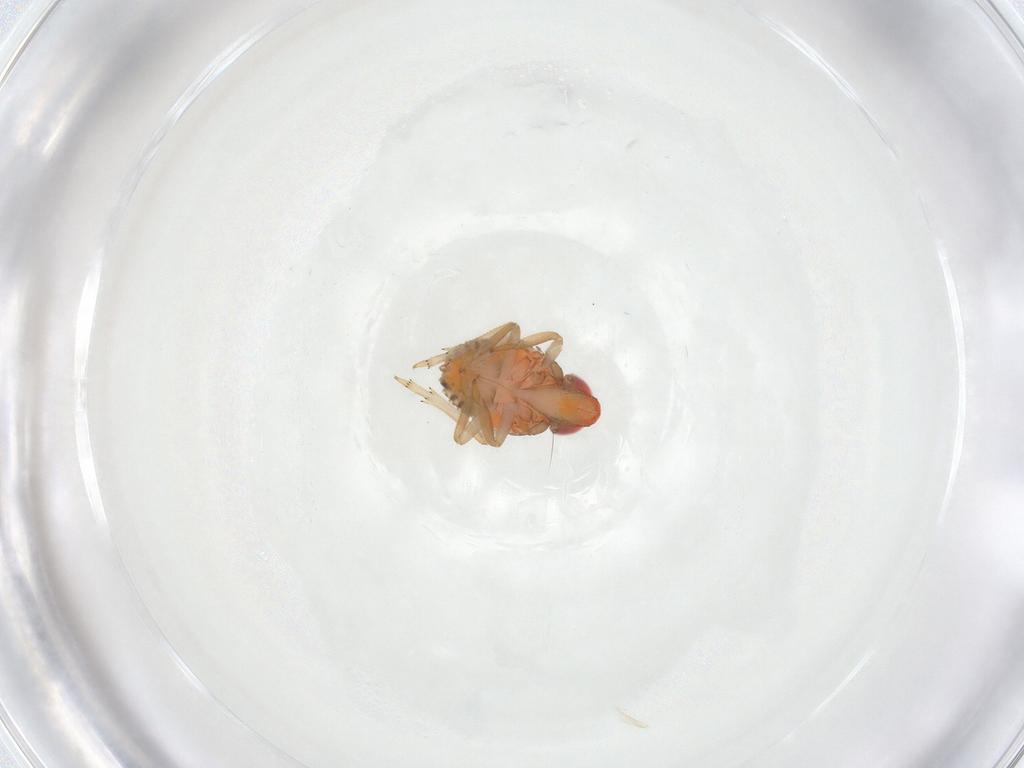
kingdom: Animalia
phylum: Arthropoda
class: Insecta
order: Hemiptera
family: Fulgoroidea_incertae_sedis
